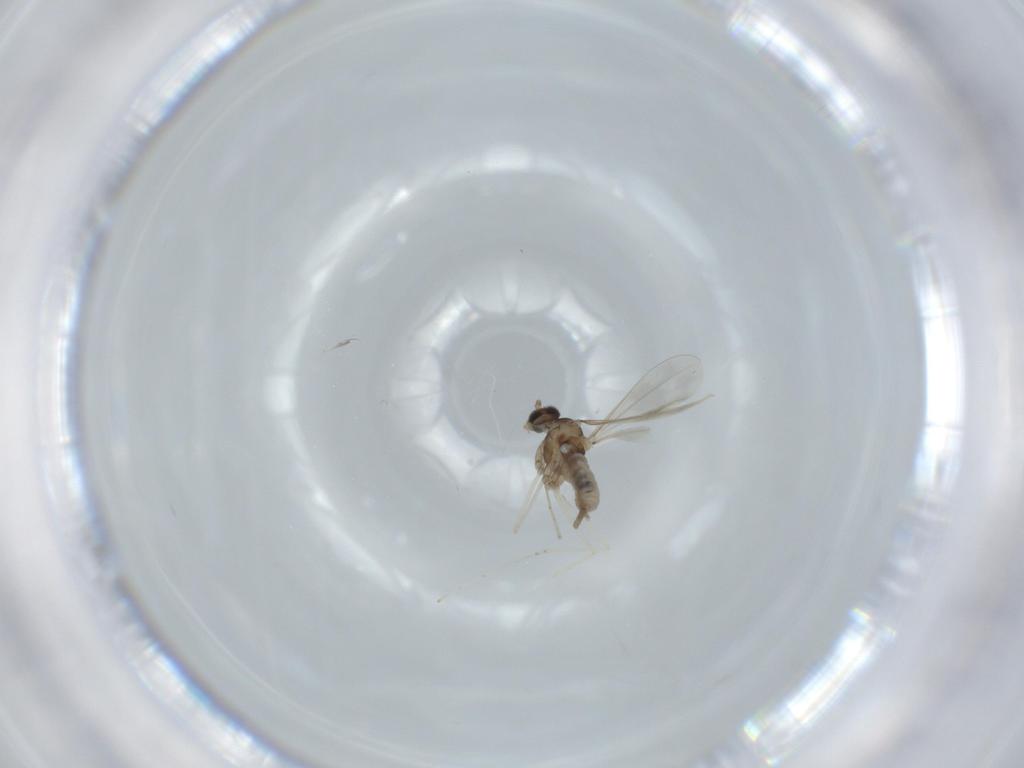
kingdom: Animalia
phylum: Arthropoda
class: Insecta
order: Diptera
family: Cecidomyiidae
